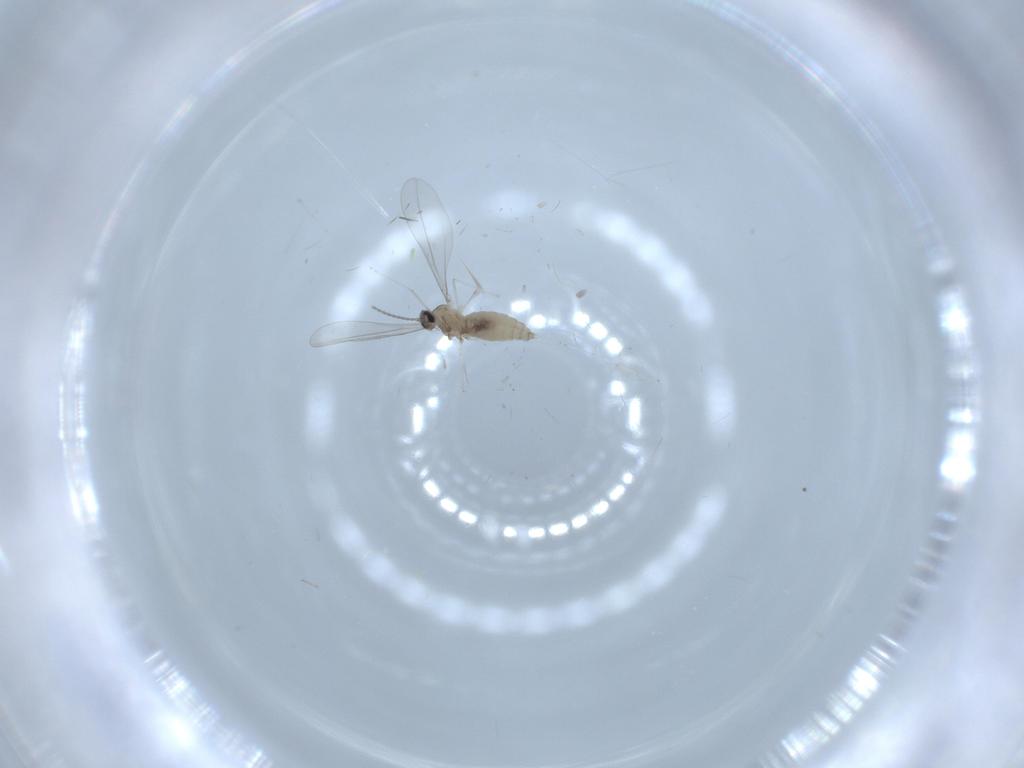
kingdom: Animalia
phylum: Arthropoda
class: Insecta
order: Diptera
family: Cecidomyiidae
